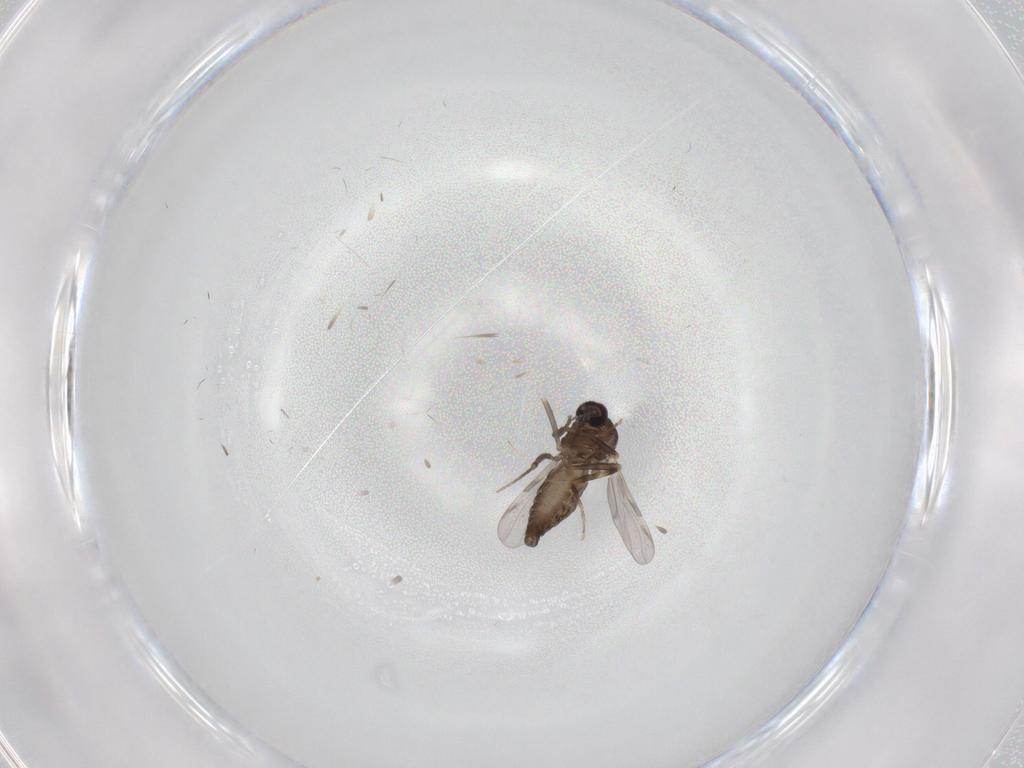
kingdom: Animalia
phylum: Arthropoda
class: Insecta
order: Diptera
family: Ceratopogonidae
